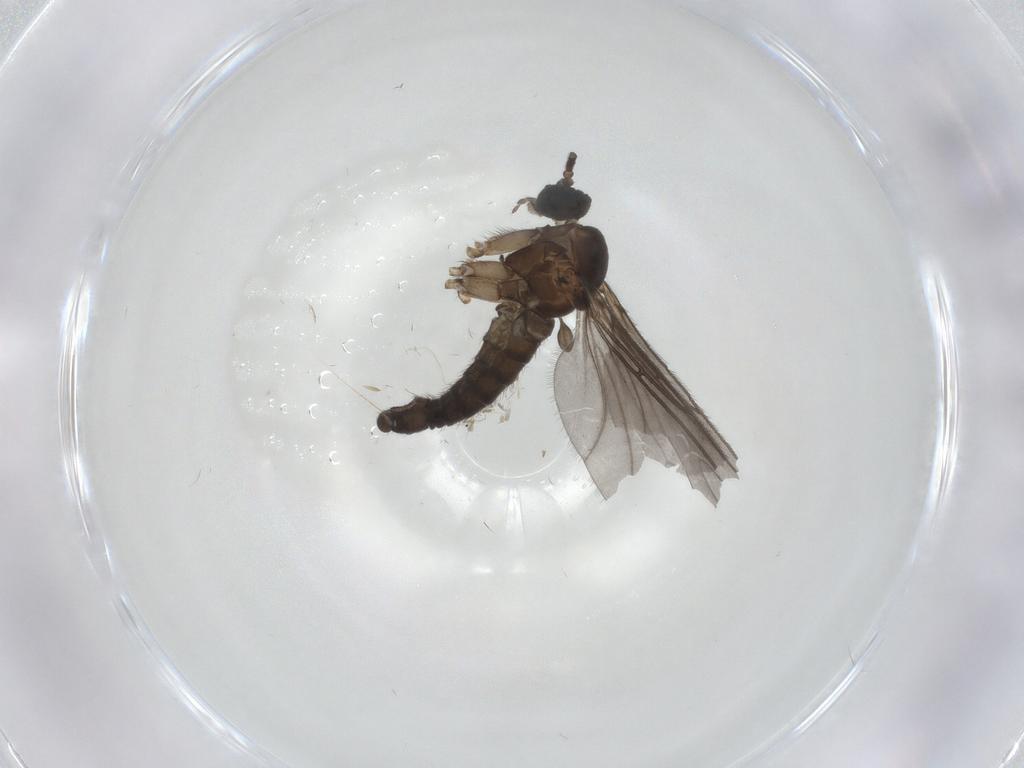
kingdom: Animalia
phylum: Arthropoda
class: Insecta
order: Diptera
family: Sciaridae
